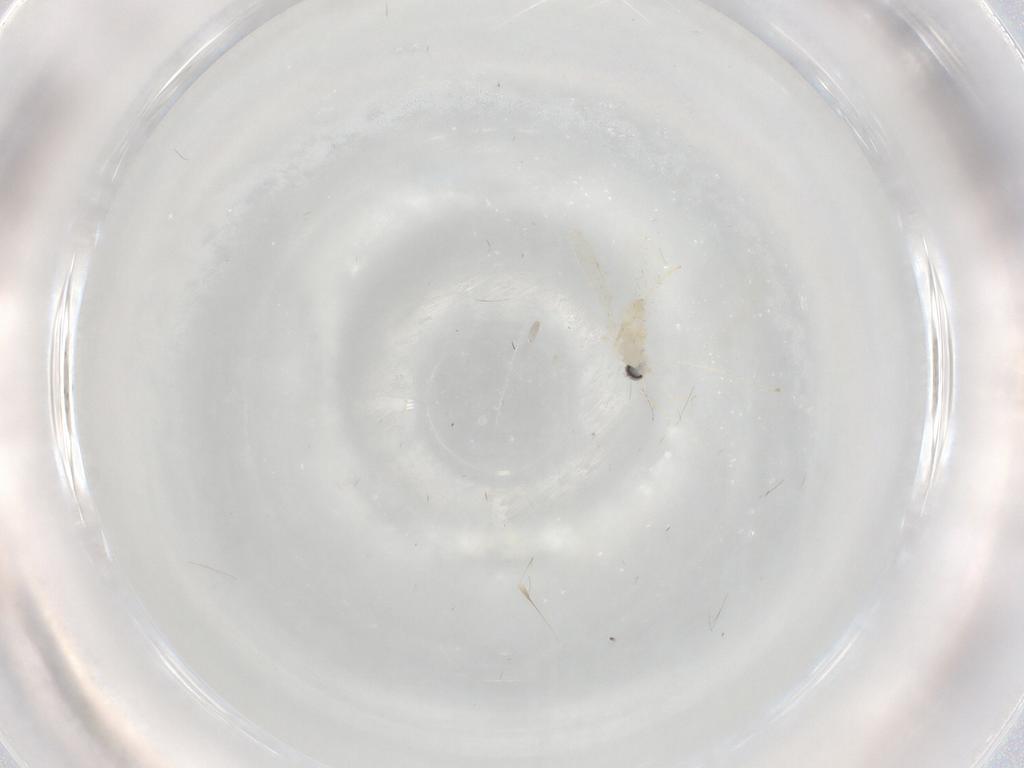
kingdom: Animalia
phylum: Arthropoda
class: Insecta
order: Diptera
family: Cecidomyiidae
